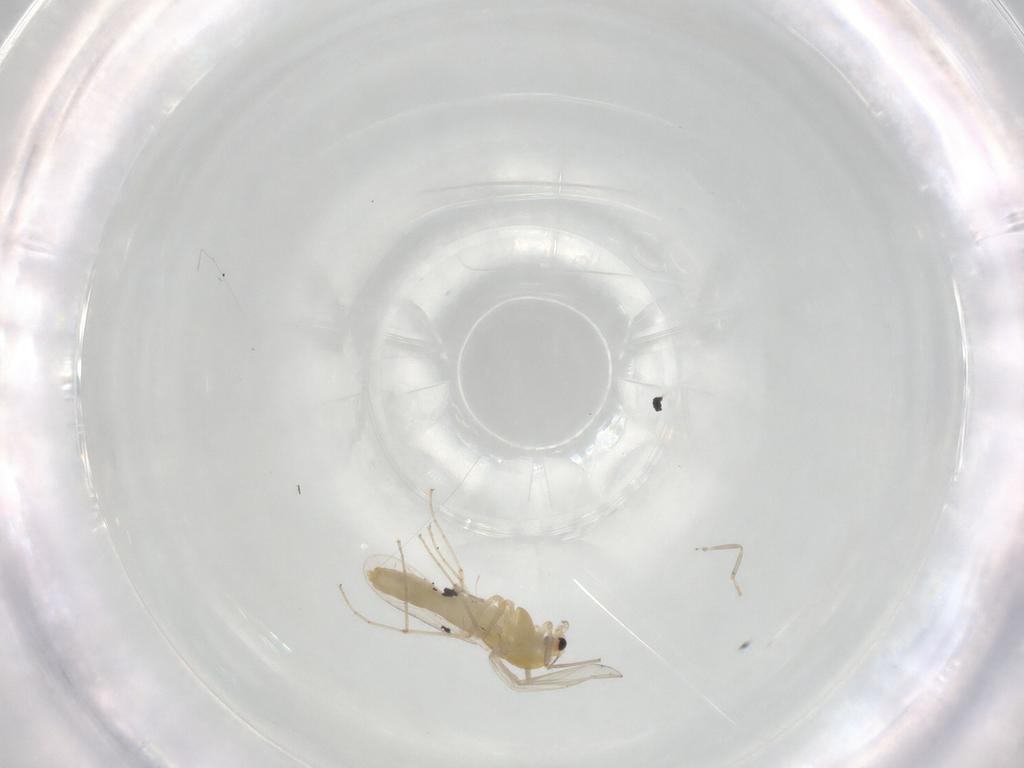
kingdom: Animalia
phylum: Arthropoda
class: Insecta
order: Diptera
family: Chironomidae
